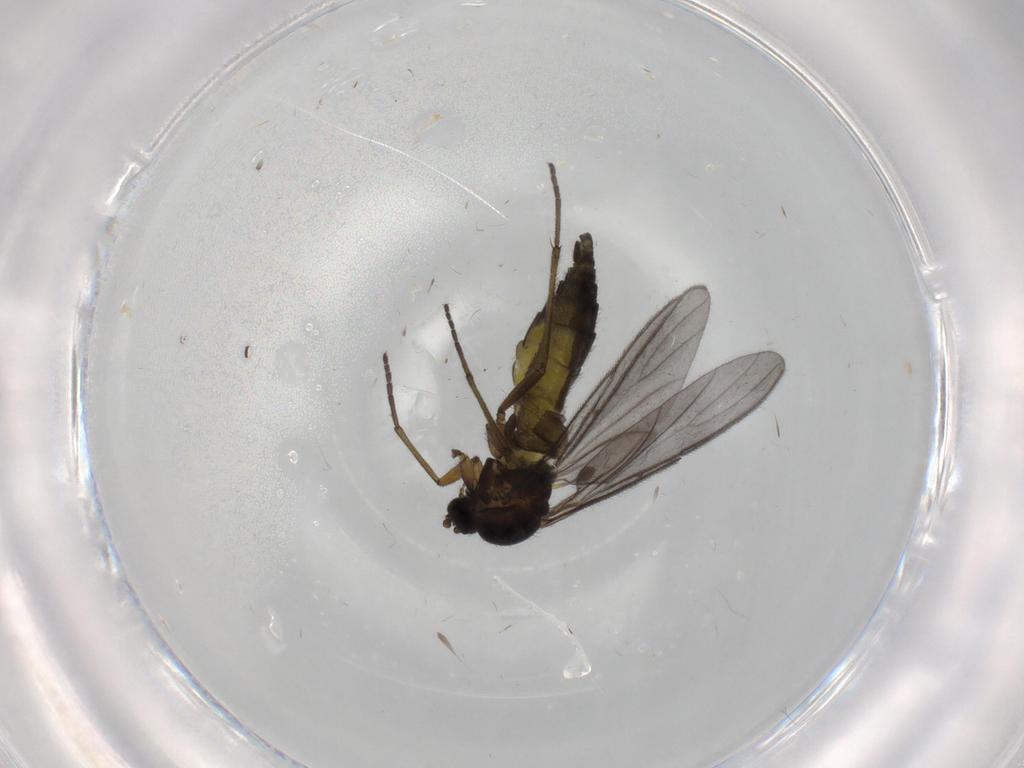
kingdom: Animalia
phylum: Arthropoda
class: Insecta
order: Diptera
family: Sciaridae
